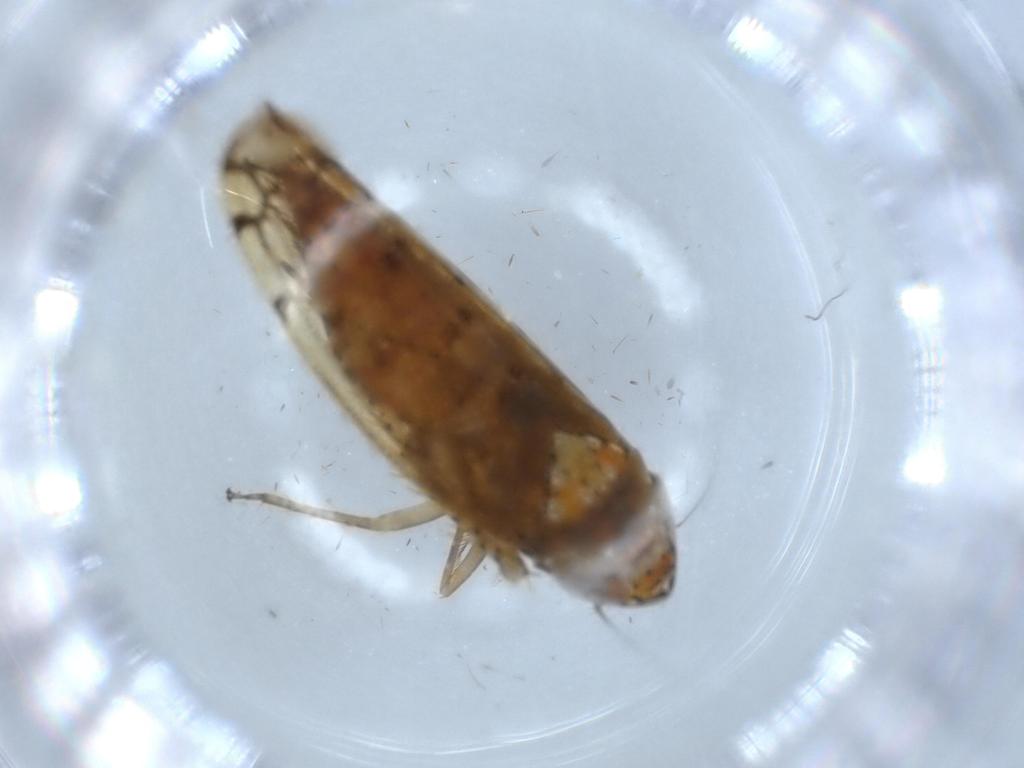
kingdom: Animalia
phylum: Arthropoda
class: Insecta
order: Hemiptera
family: Cicadellidae
